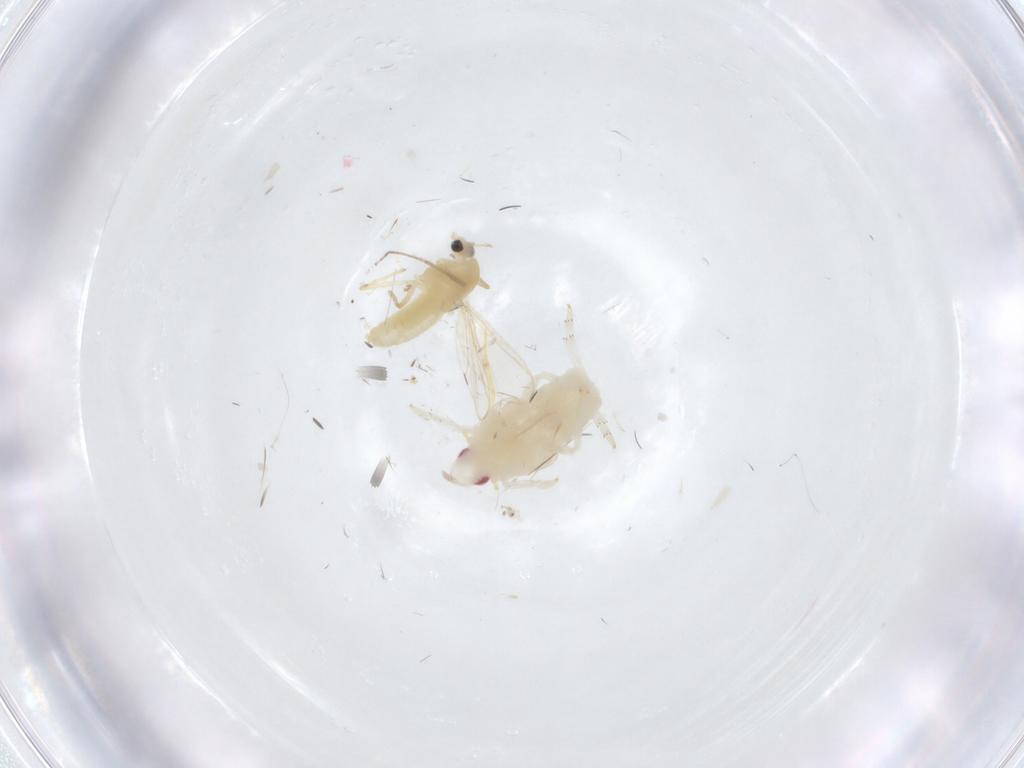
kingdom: Animalia
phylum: Arthropoda
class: Insecta
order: Diptera
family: Chironomidae
